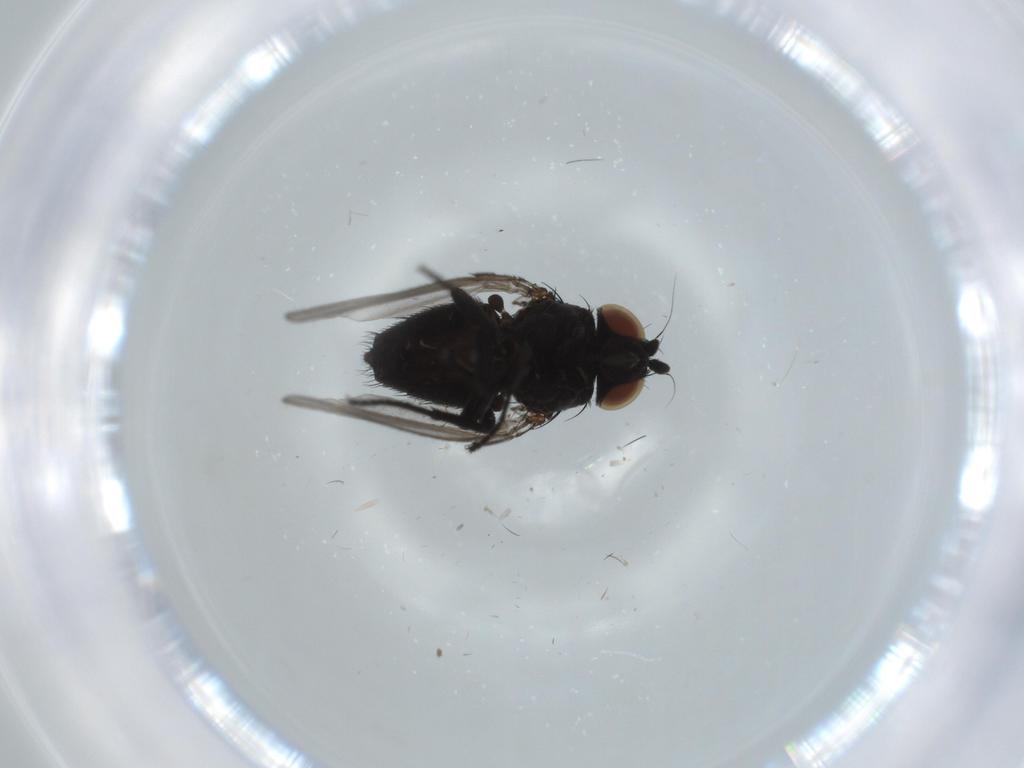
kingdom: Animalia
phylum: Arthropoda
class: Insecta
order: Diptera
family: Milichiidae
